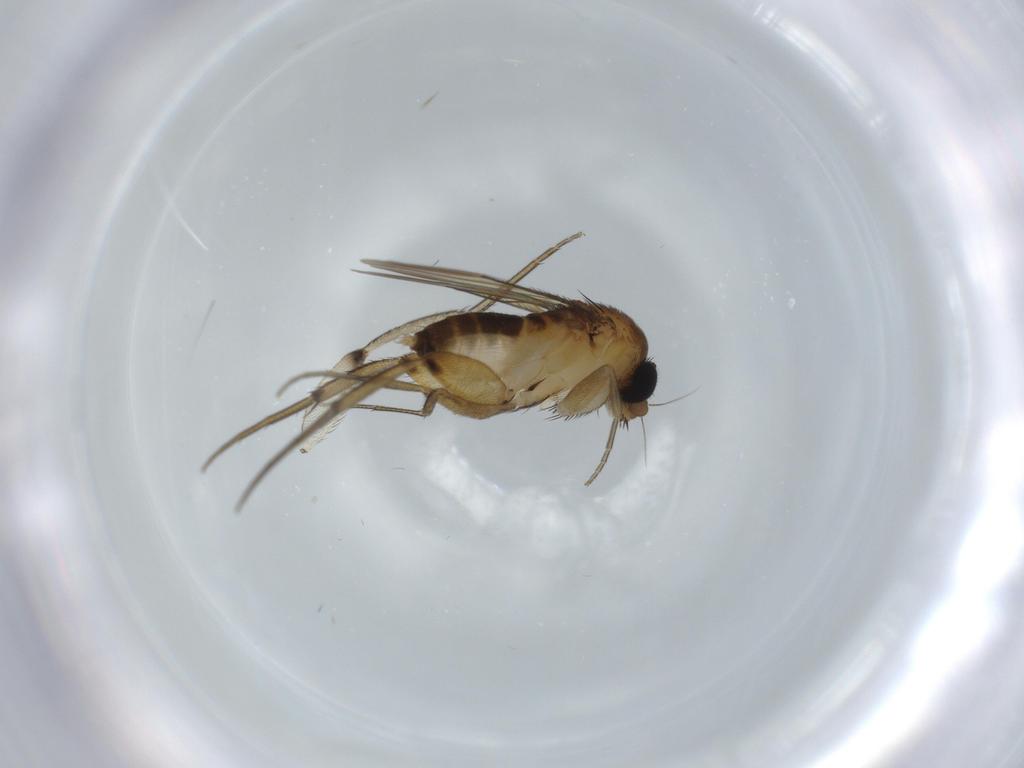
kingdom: Animalia
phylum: Arthropoda
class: Insecta
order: Diptera
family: Phoridae
